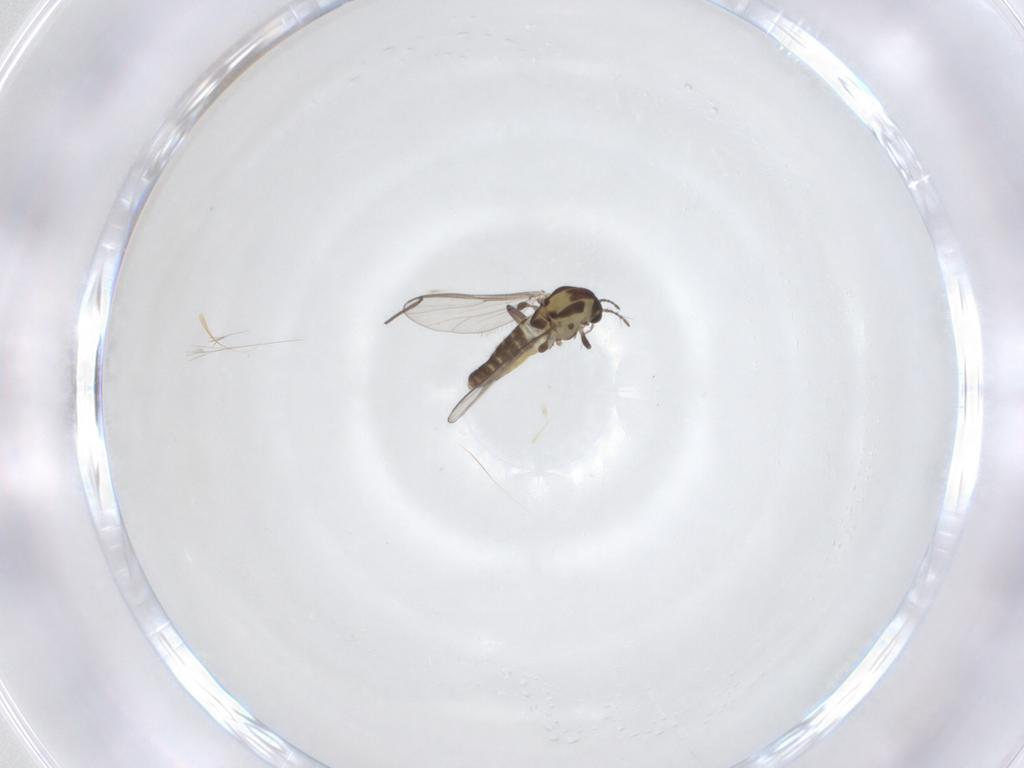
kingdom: Animalia
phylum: Arthropoda
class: Insecta
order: Diptera
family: Chironomidae
